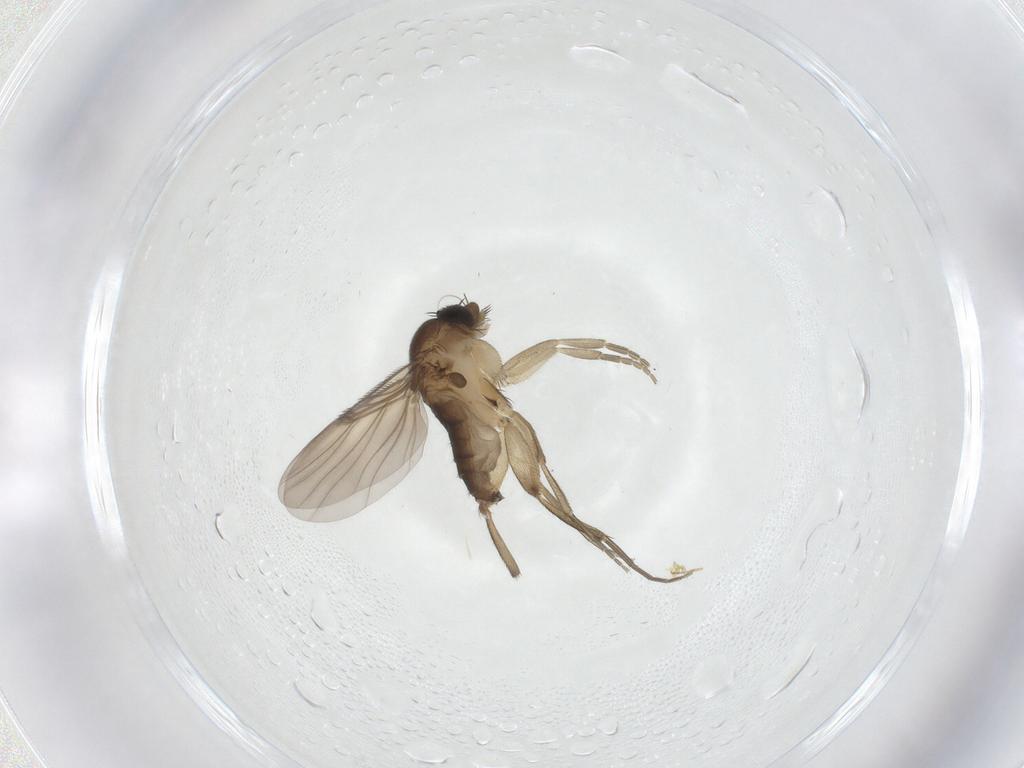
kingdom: Animalia
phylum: Arthropoda
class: Insecta
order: Diptera
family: Phoridae
